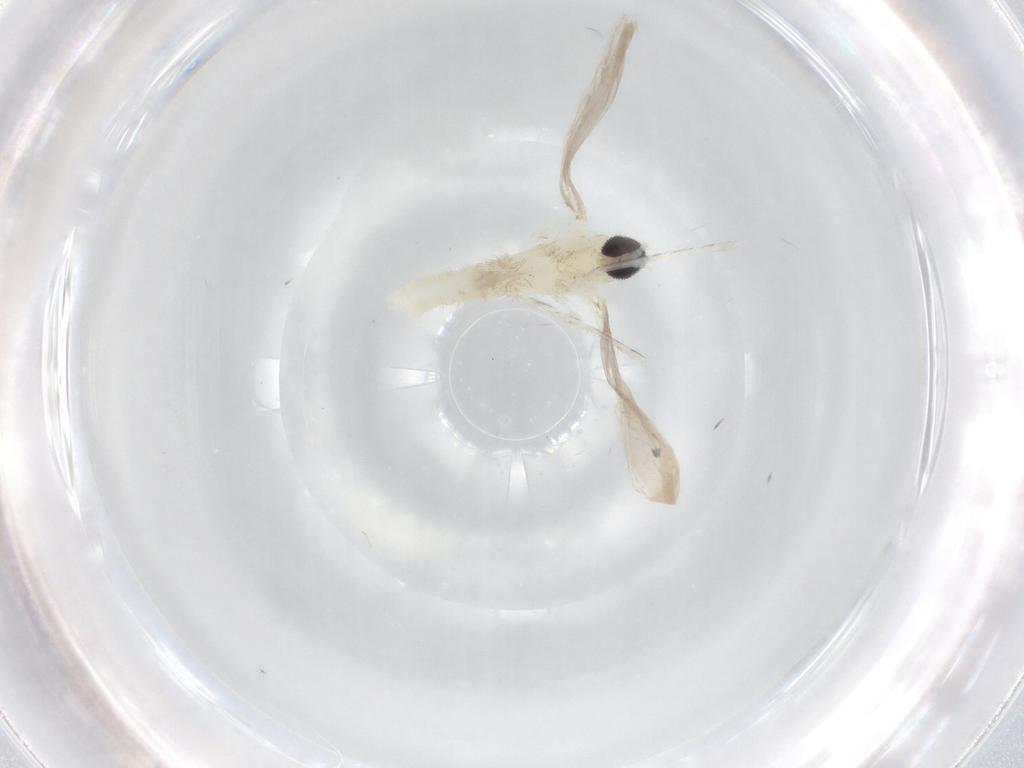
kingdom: Animalia
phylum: Arthropoda
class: Insecta
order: Diptera
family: Cecidomyiidae
